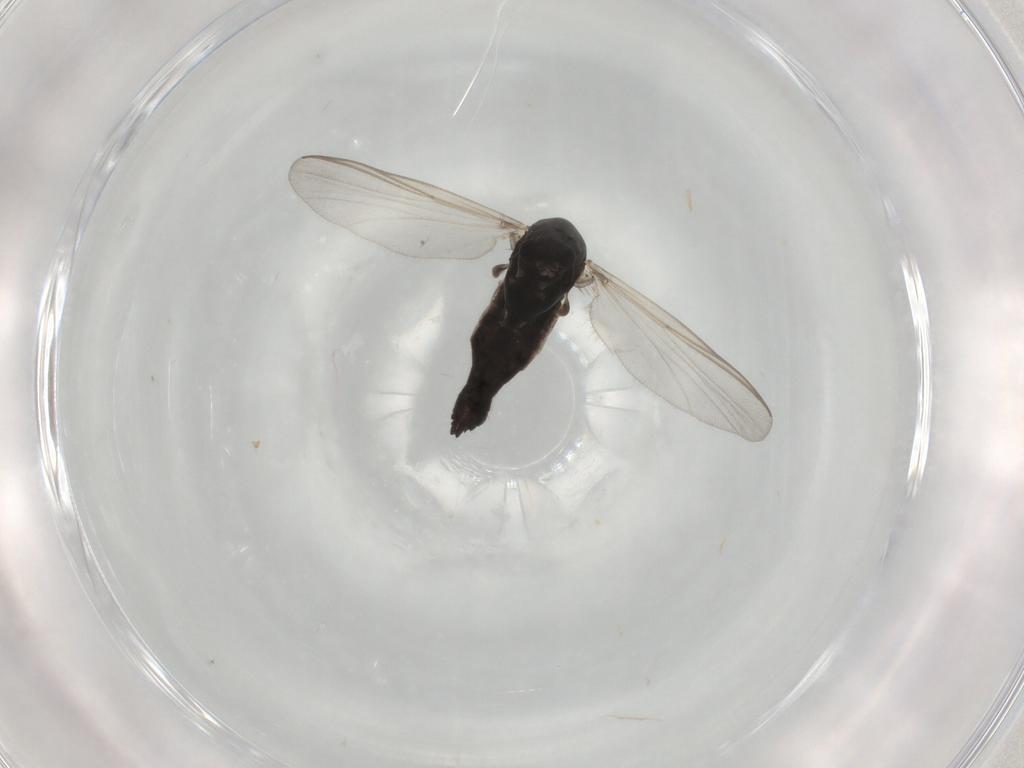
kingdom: Animalia
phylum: Arthropoda
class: Insecta
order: Diptera
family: Chironomidae
